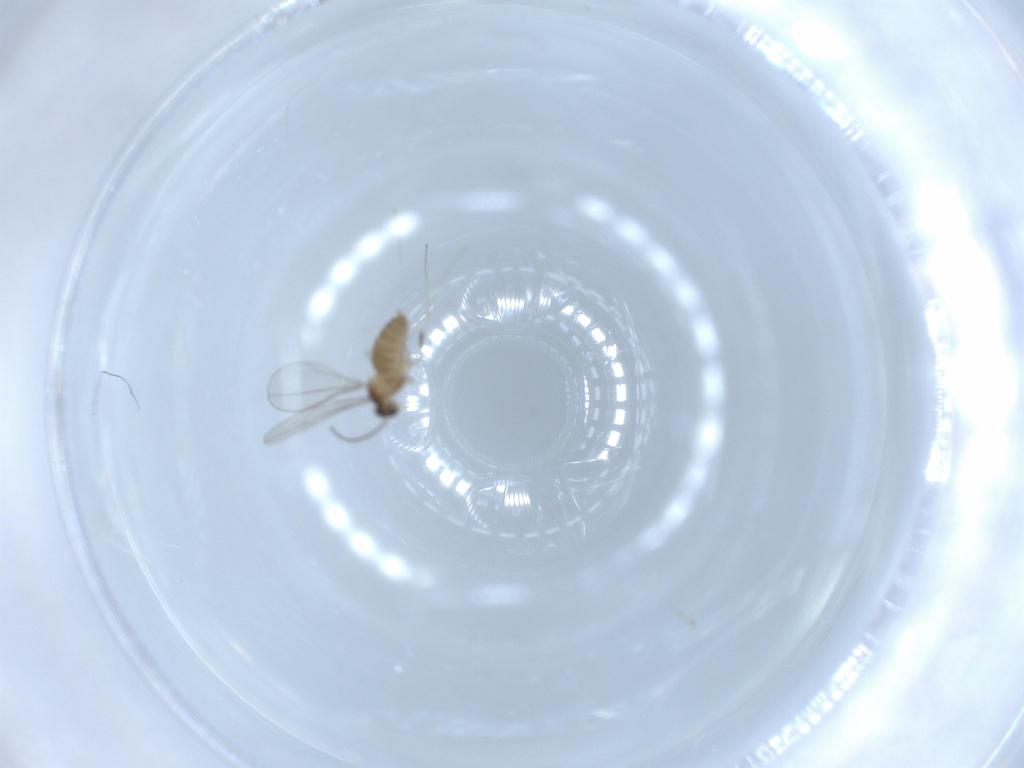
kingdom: Animalia
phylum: Arthropoda
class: Insecta
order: Diptera
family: Cecidomyiidae
